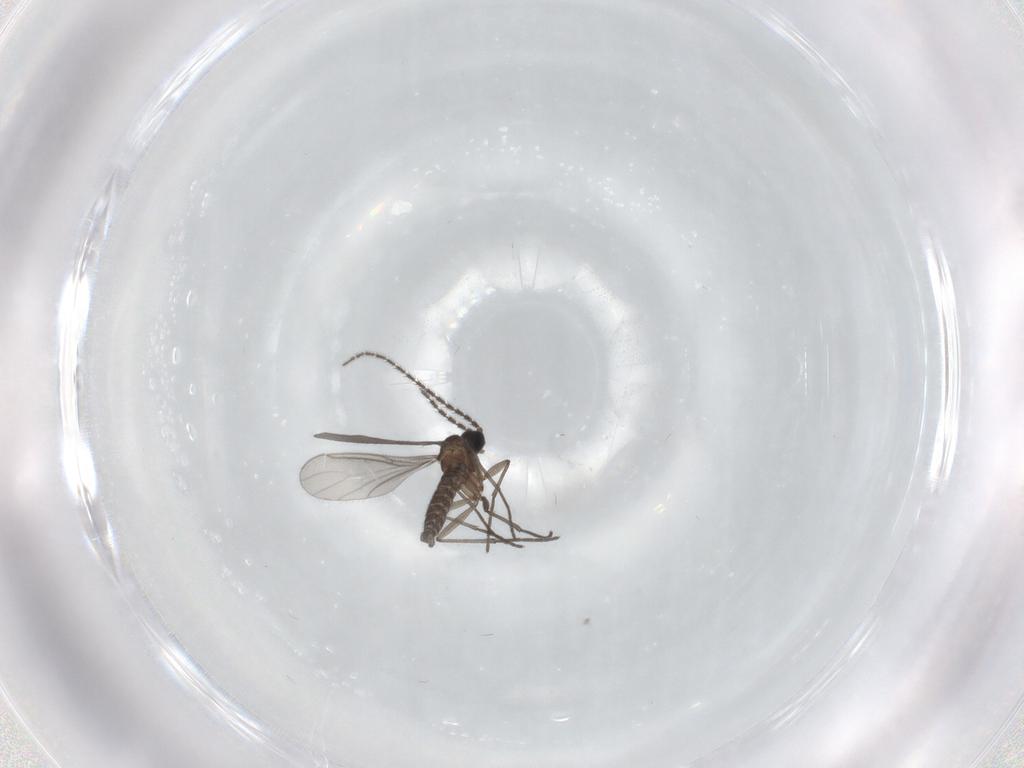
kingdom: Animalia
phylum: Arthropoda
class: Insecta
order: Diptera
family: Sciaridae
